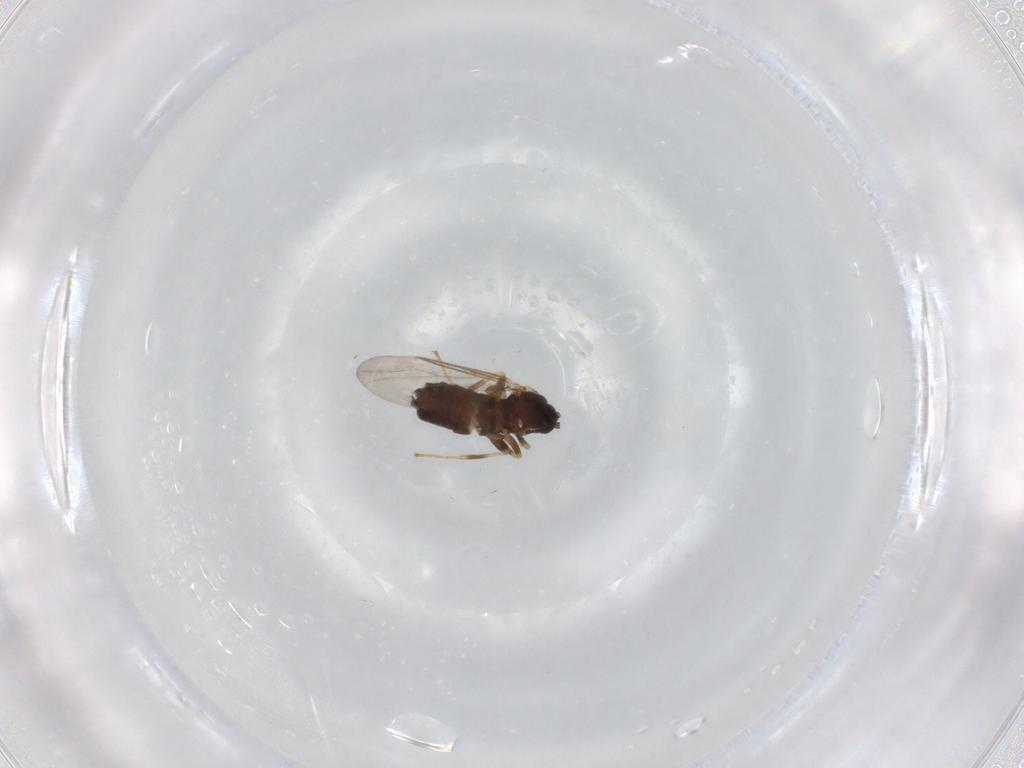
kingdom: Animalia
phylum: Arthropoda
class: Insecta
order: Diptera
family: Scatopsidae
